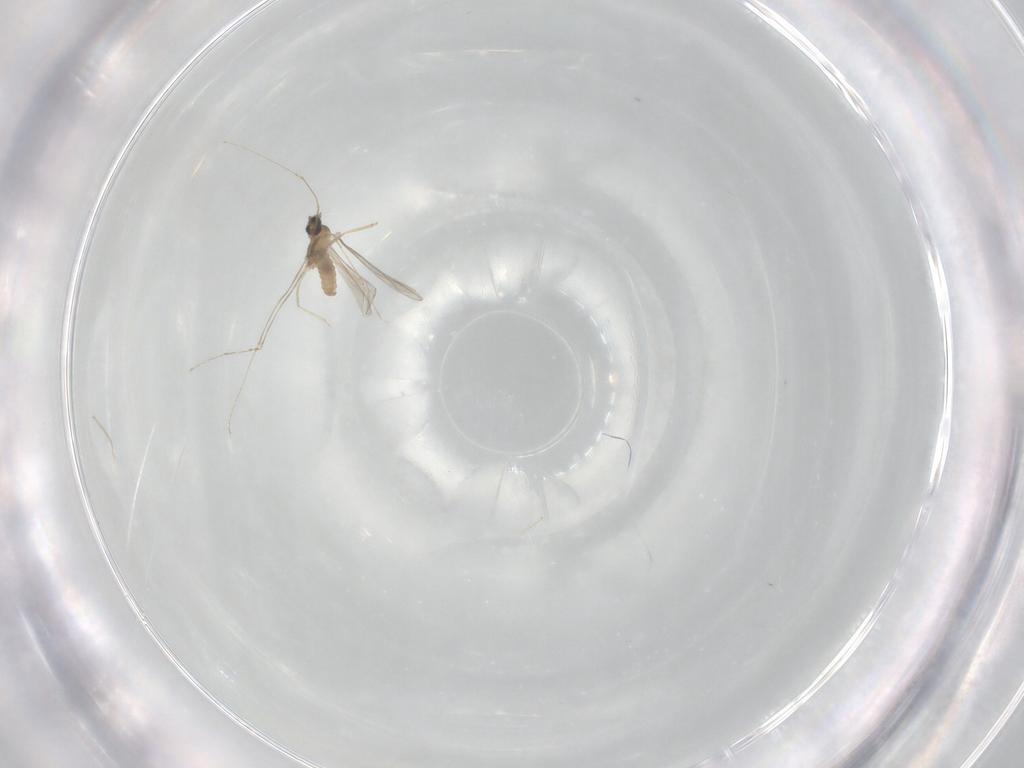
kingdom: Animalia
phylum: Arthropoda
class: Insecta
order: Diptera
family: Cecidomyiidae
